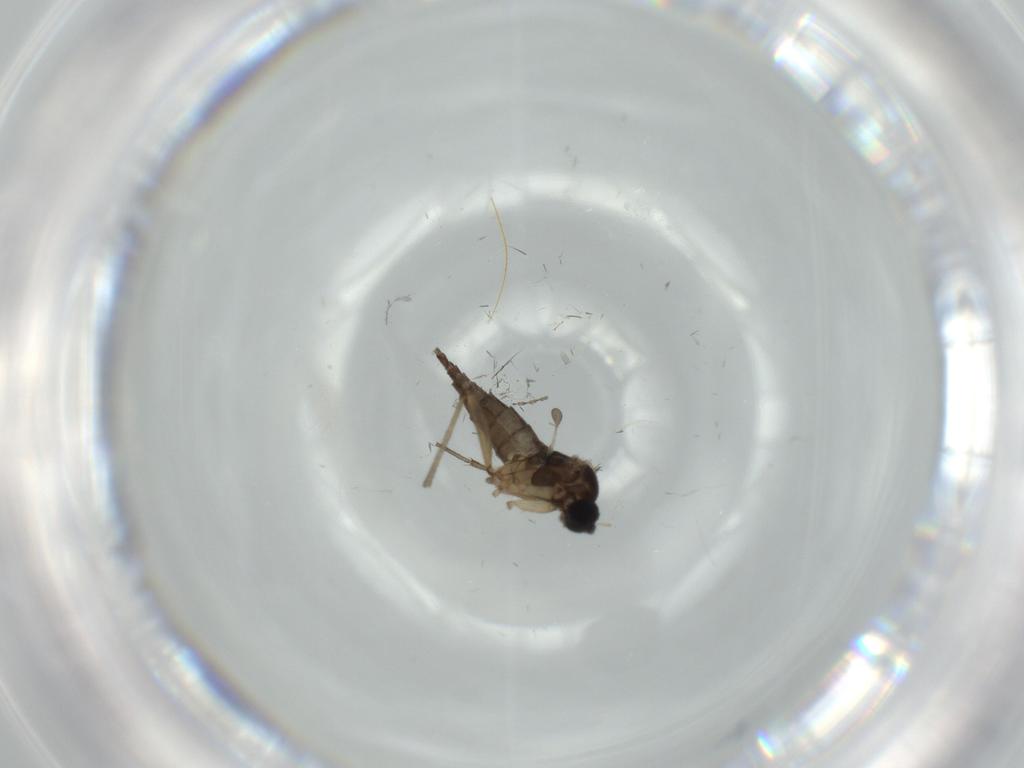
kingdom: Animalia
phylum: Arthropoda
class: Insecta
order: Diptera
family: Sciaridae
